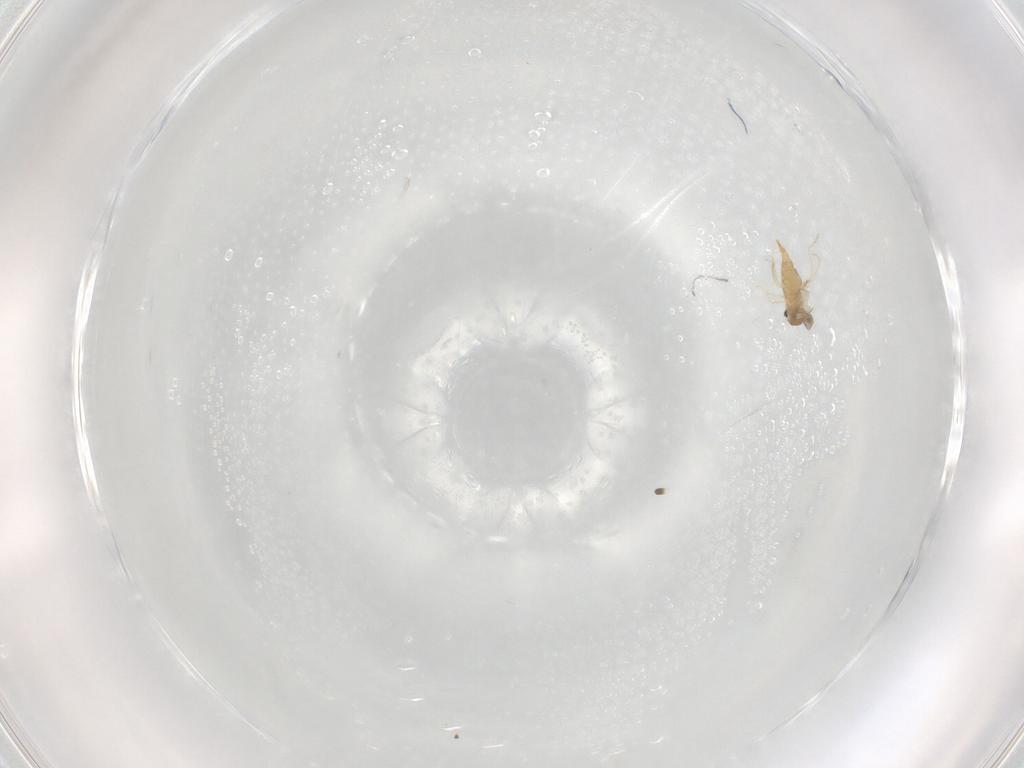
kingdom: Animalia
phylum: Arthropoda
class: Insecta
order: Diptera
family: Cecidomyiidae
